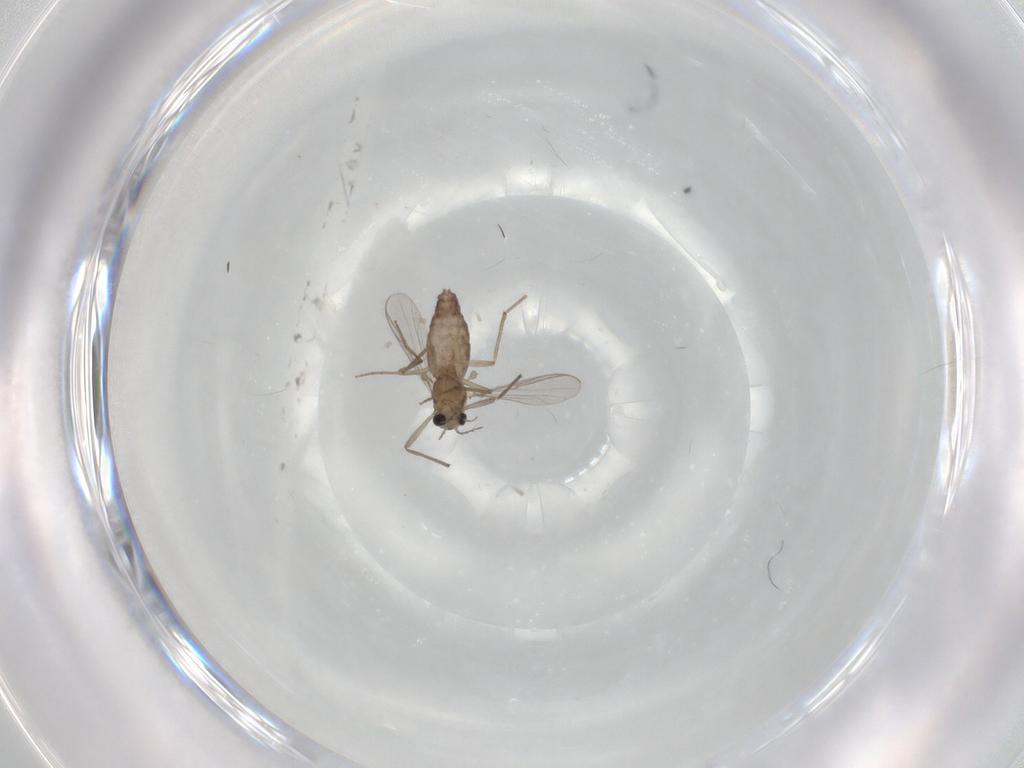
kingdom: Animalia
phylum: Arthropoda
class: Insecta
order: Diptera
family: Chironomidae
